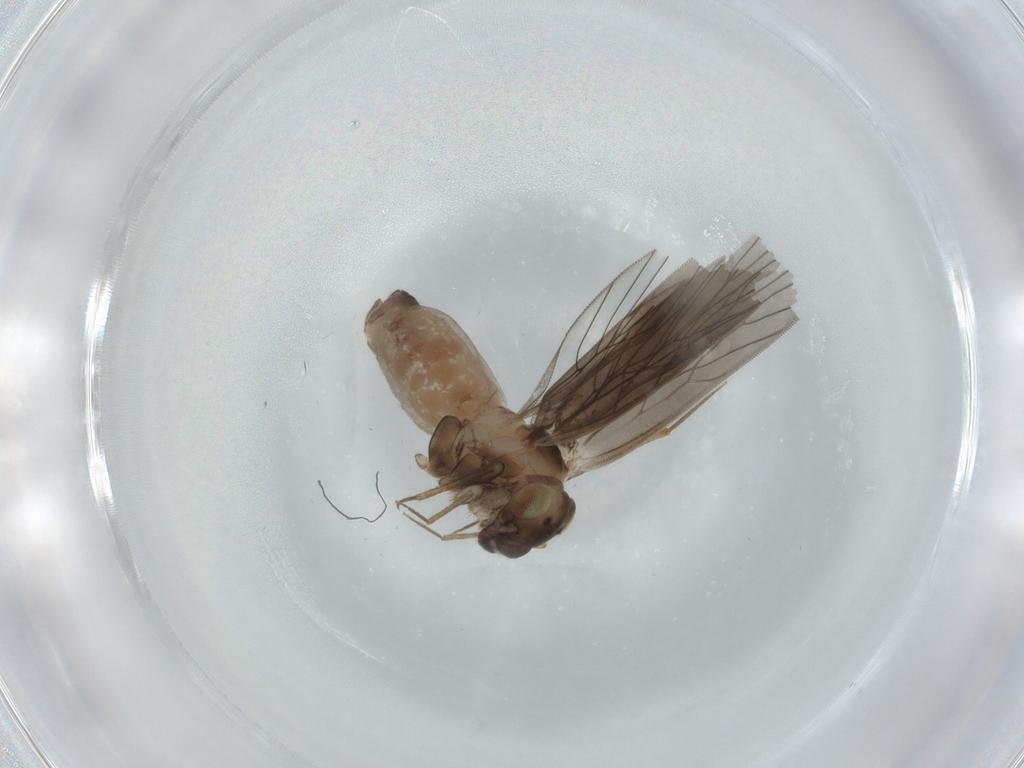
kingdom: Animalia
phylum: Arthropoda
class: Insecta
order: Psocodea
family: Lepidopsocidae
